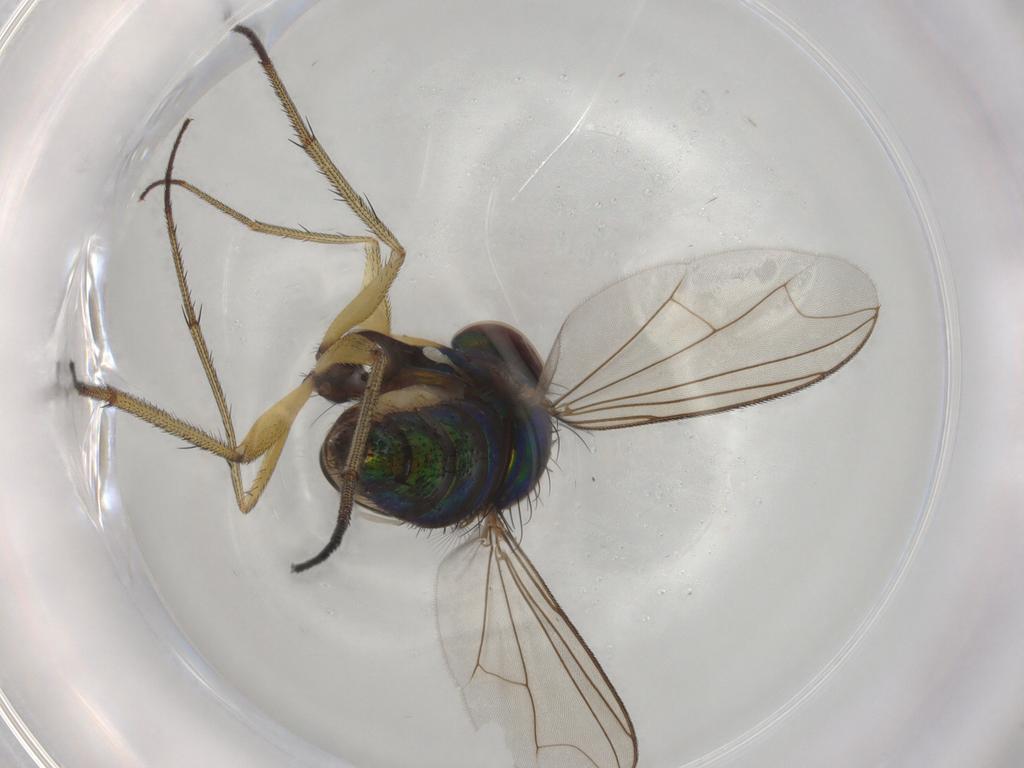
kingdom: Animalia
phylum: Arthropoda
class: Insecta
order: Diptera
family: Dolichopodidae
